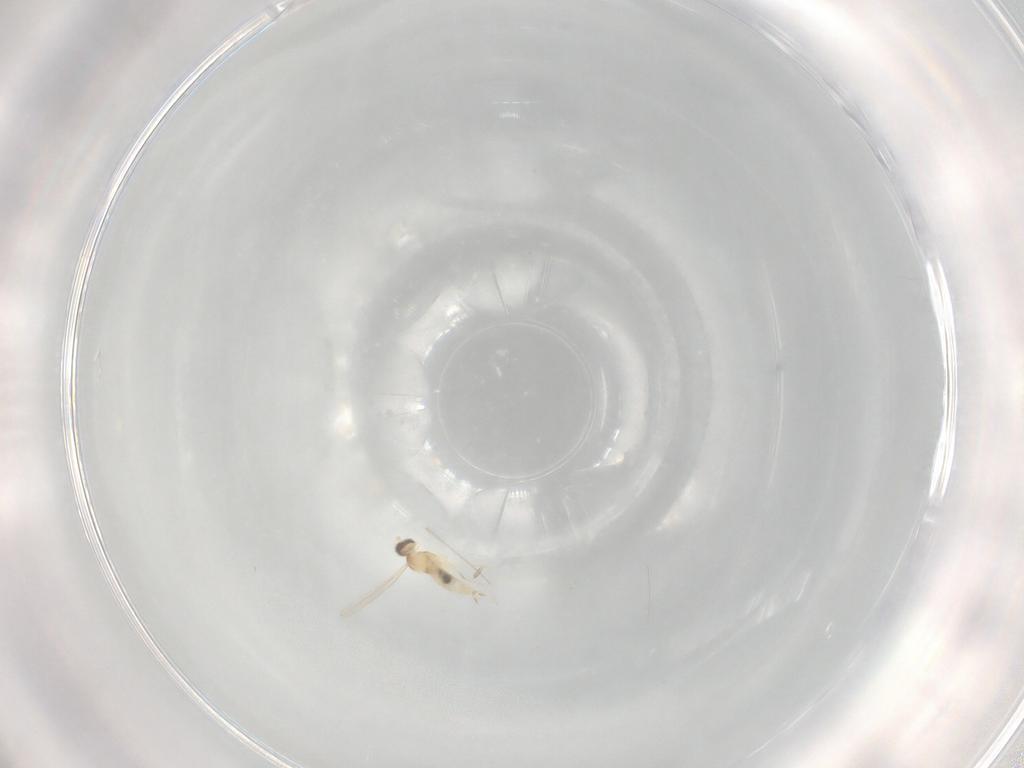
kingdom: Animalia
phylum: Arthropoda
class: Insecta
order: Diptera
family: Cecidomyiidae
